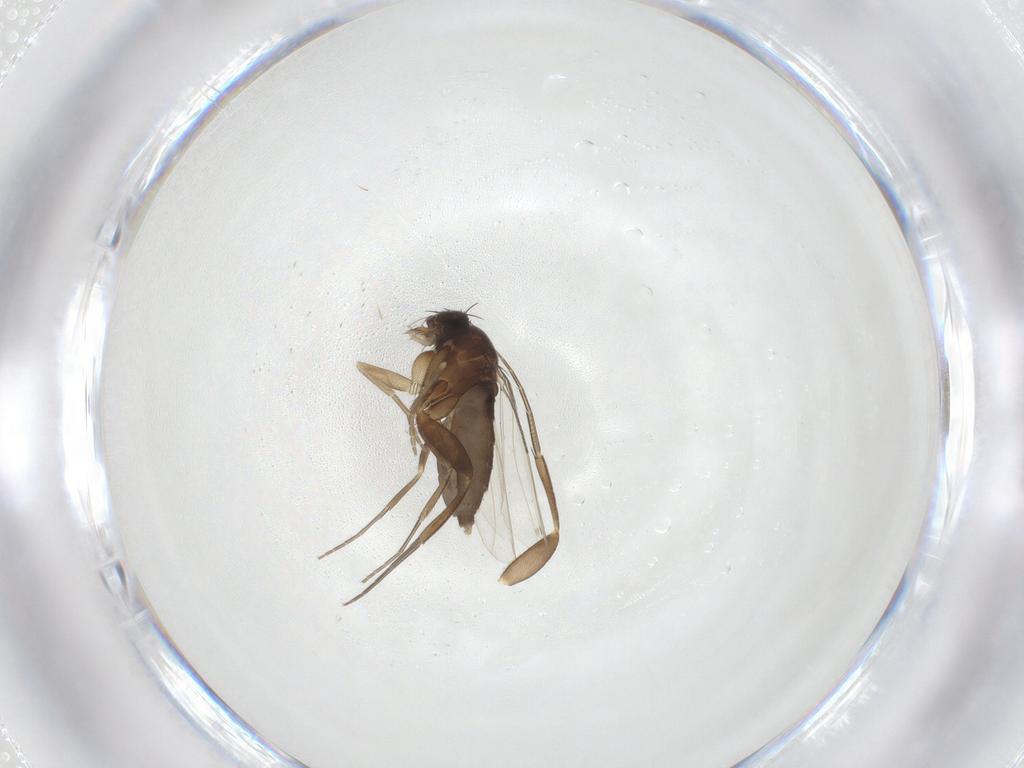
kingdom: Animalia
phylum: Arthropoda
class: Insecta
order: Diptera
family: Phoridae
